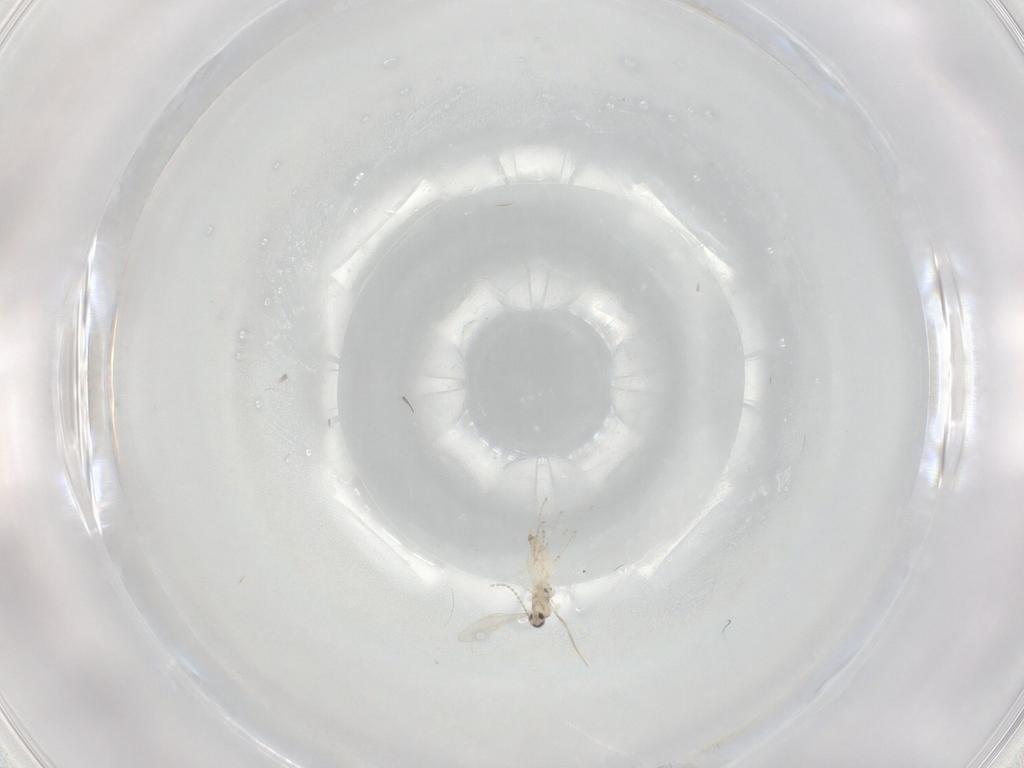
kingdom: Animalia
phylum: Arthropoda
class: Insecta
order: Diptera
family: Cecidomyiidae
